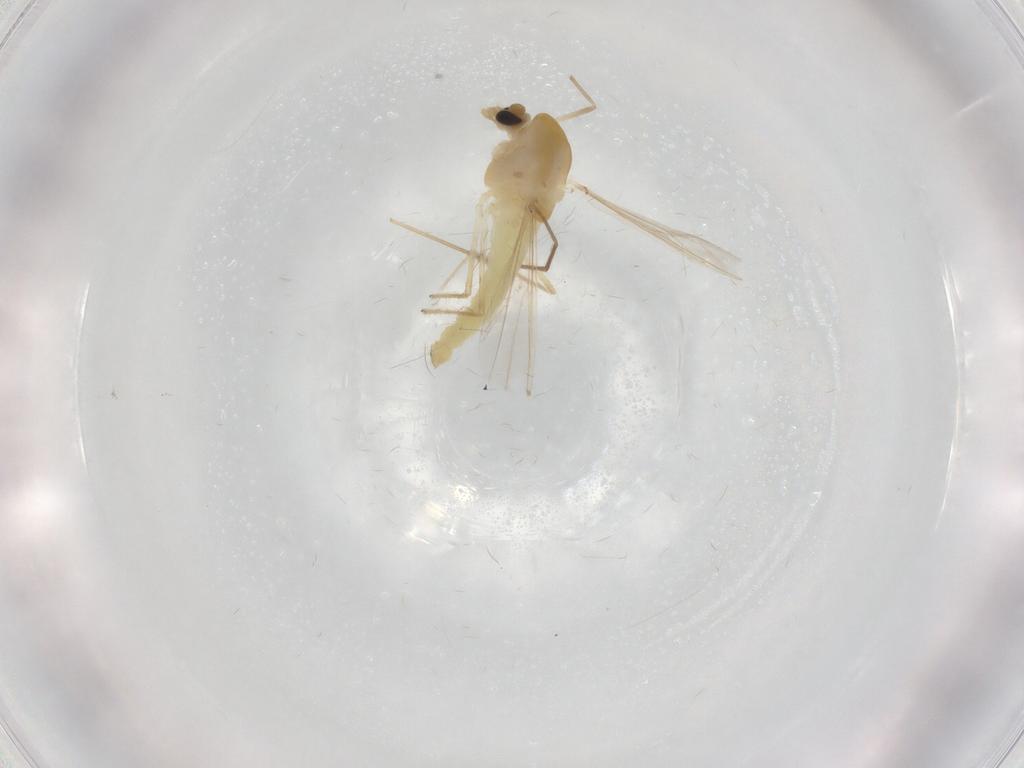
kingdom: Animalia
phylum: Arthropoda
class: Insecta
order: Diptera
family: Chironomidae
